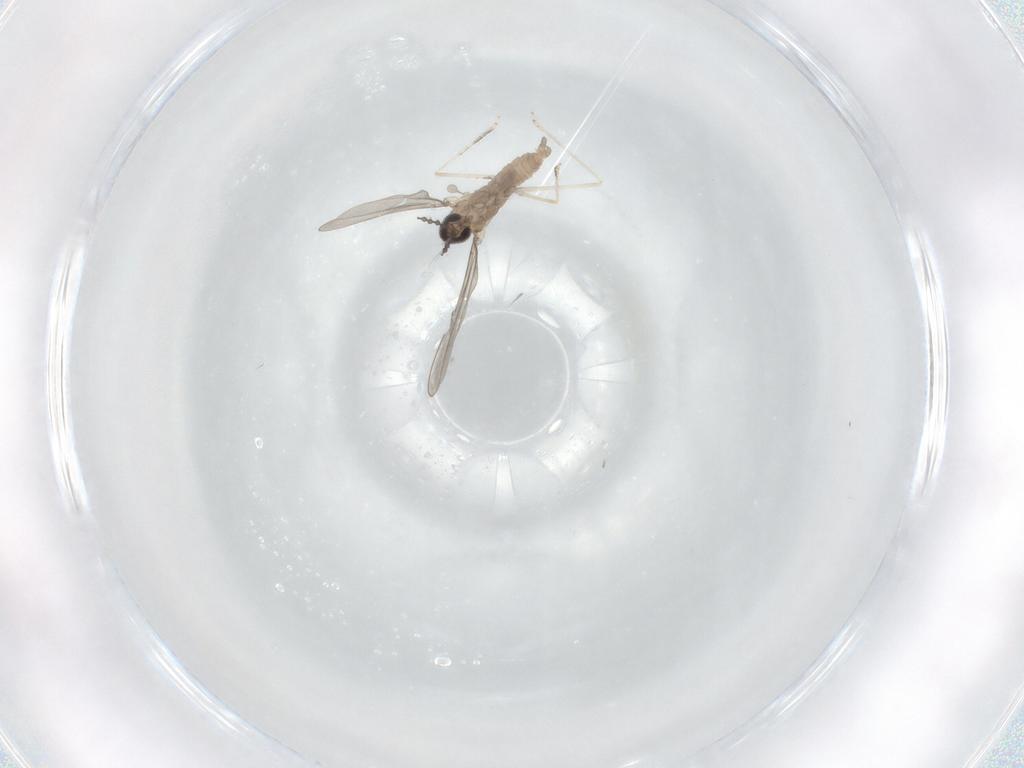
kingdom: Animalia
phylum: Arthropoda
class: Insecta
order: Diptera
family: Cecidomyiidae
